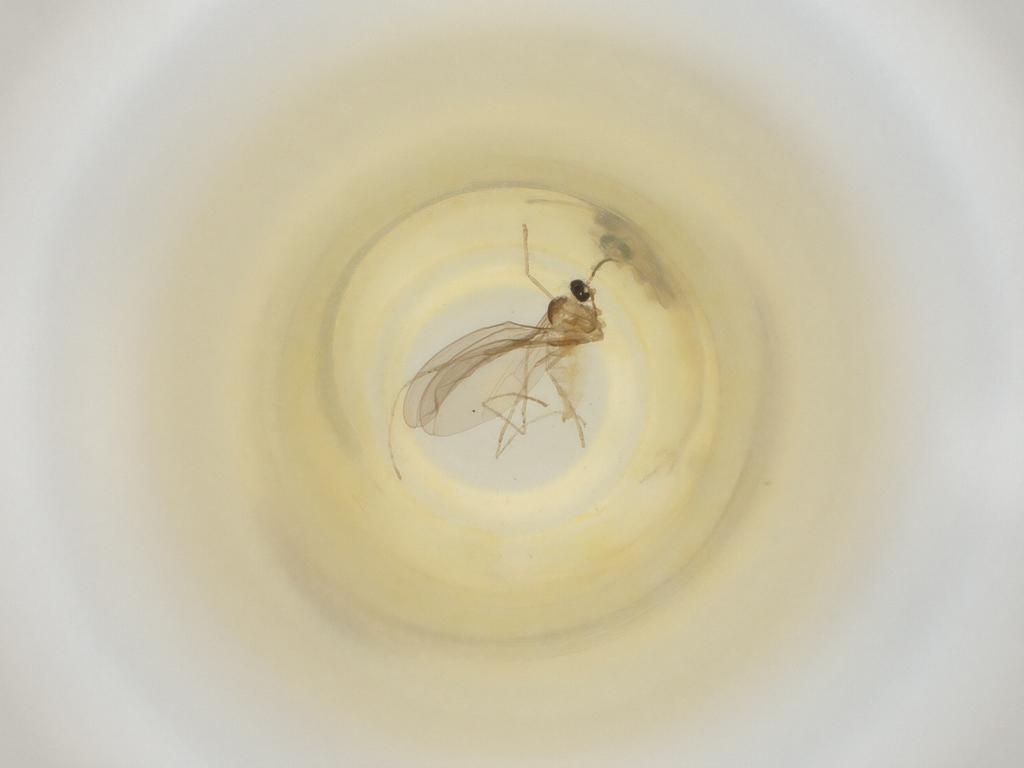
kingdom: Animalia
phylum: Arthropoda
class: Insecta
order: Diptera
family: Cecidomyiidae
